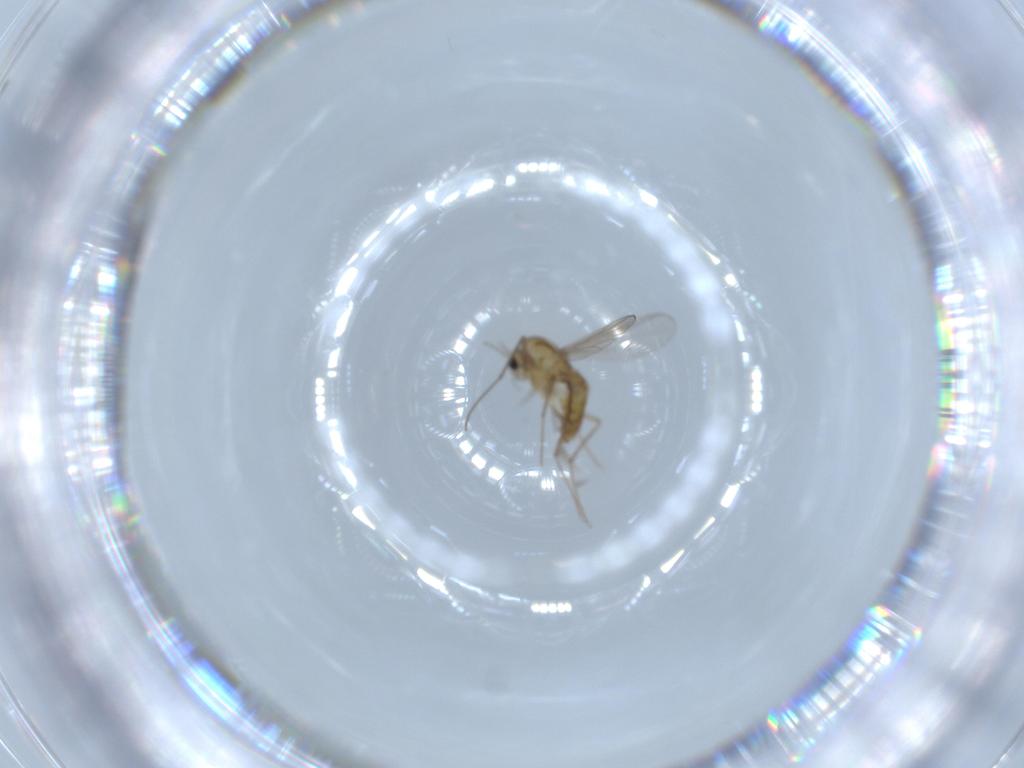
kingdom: Animalia
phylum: Arthropoda
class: Insecta
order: Diptera
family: Chironomidae
